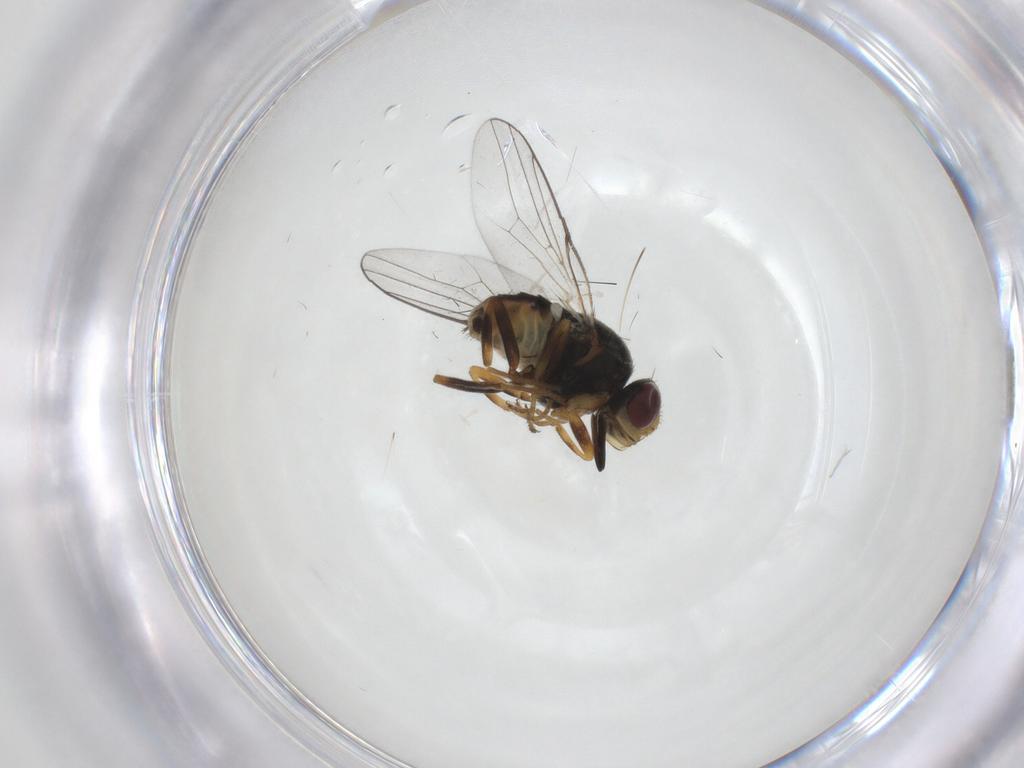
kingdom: Animalia
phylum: Arthropoda
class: Insecta
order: Diptera
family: Chloropidae
